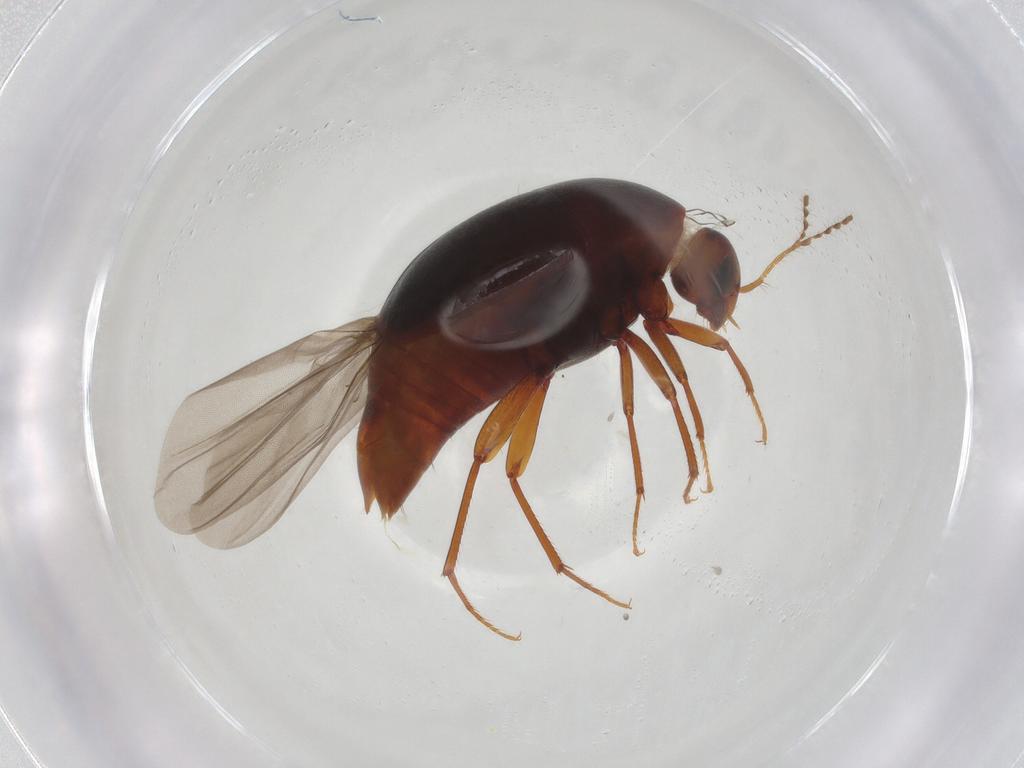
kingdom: Animalia
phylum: Arthropoda
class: Insecta
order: Coleoptera
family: Staphylinidae
